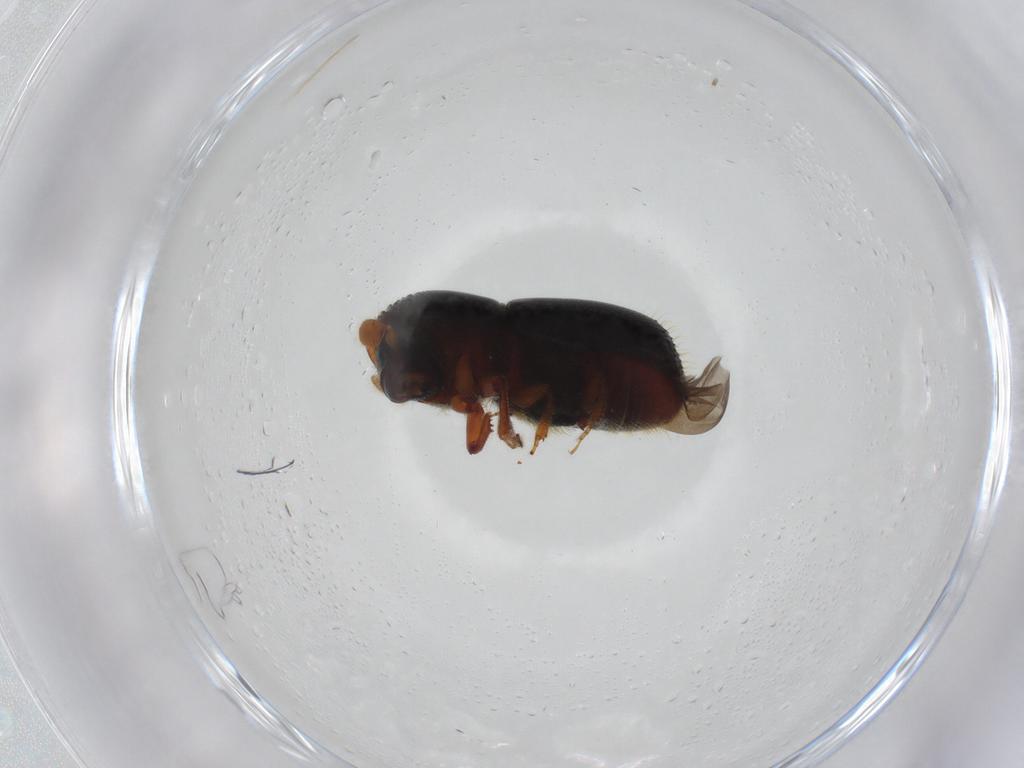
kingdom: Animalia
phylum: Arthropoda
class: Insecta
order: Coleoptera
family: Curculionidae
